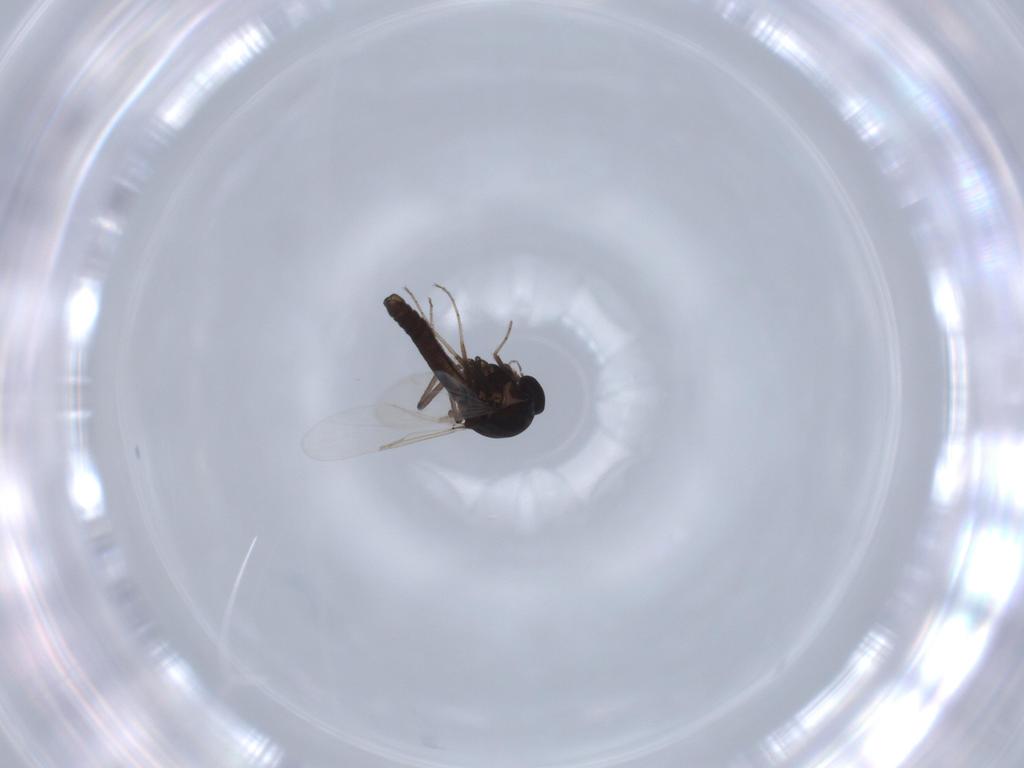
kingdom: Animalia
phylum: Arthropoda
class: Insecta
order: Diptera
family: Ceratopogonidae
